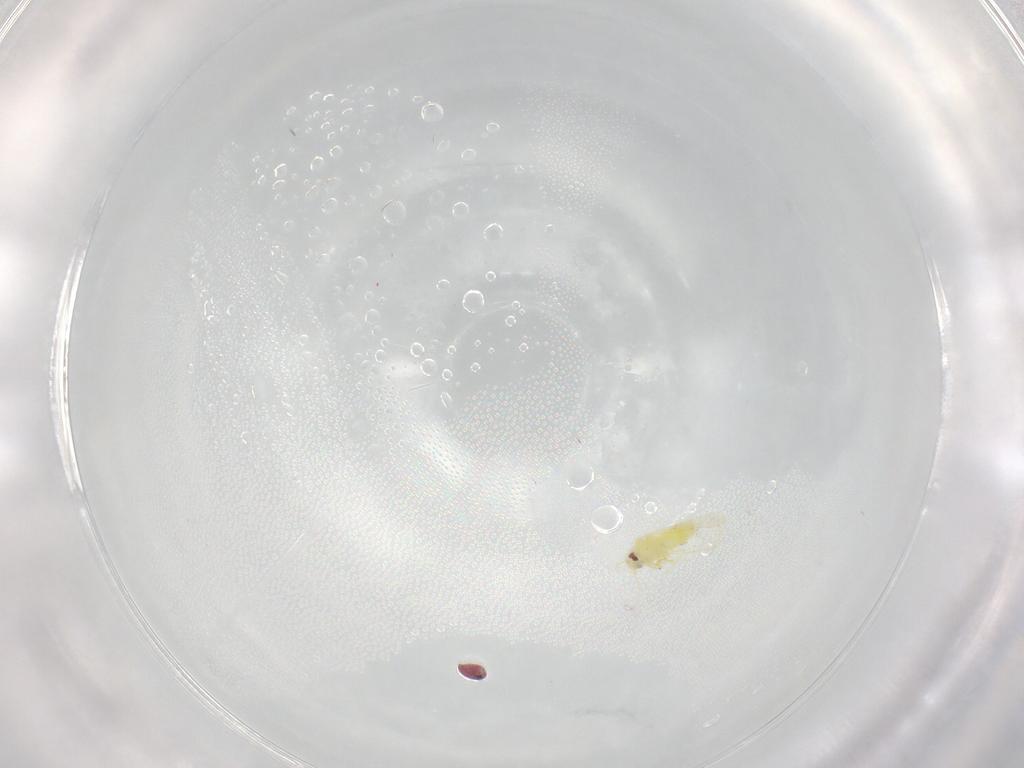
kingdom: Animalia
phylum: Arthropoda
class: Insecta
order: Hemiptera
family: Aleyrodidae
